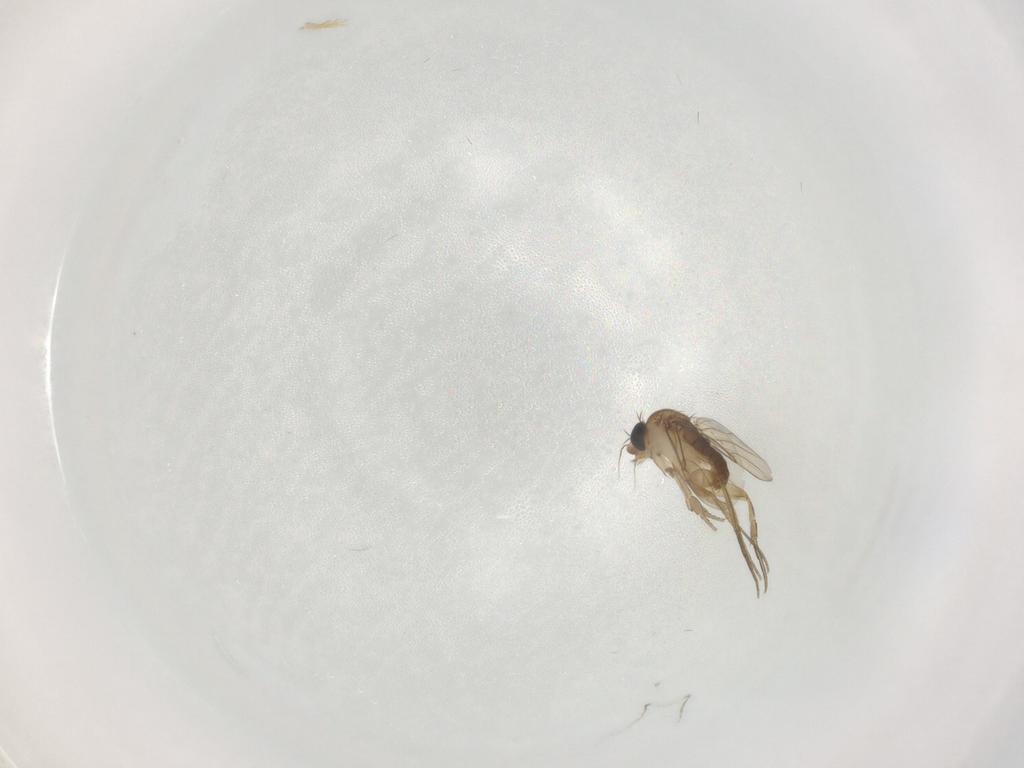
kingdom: Animalia
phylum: Arthropoda
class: Insecta
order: Diptera
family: Phoridae
